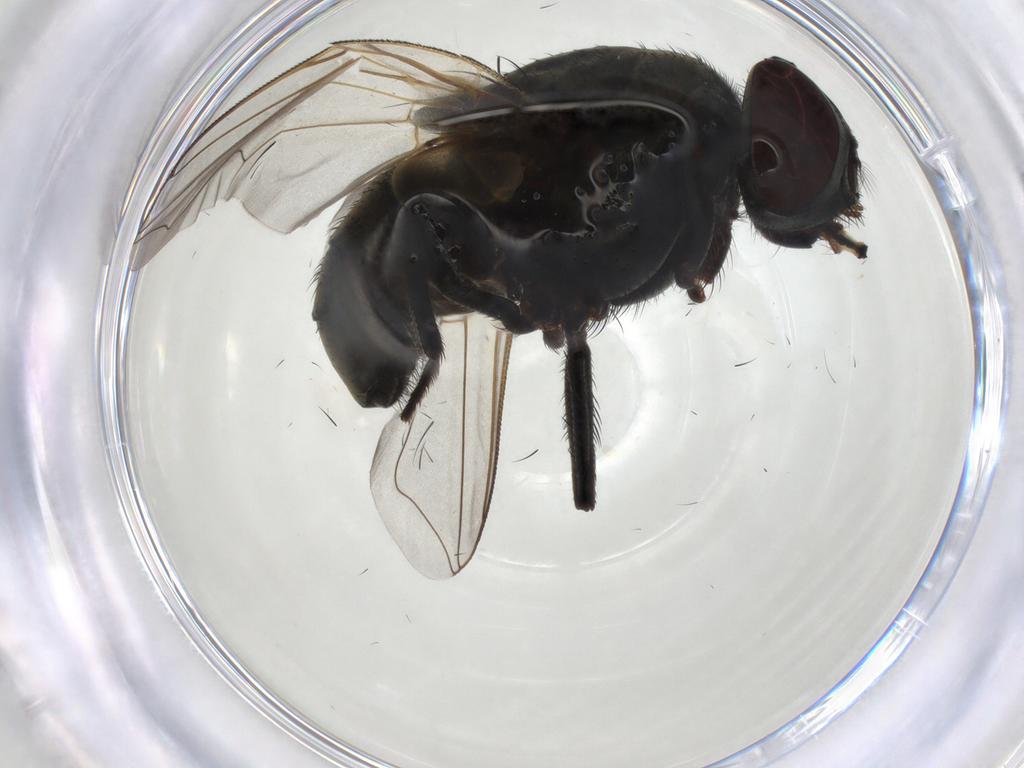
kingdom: Animalia
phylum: Arthropoda
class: Insecta
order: Diptera
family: Muscidae
